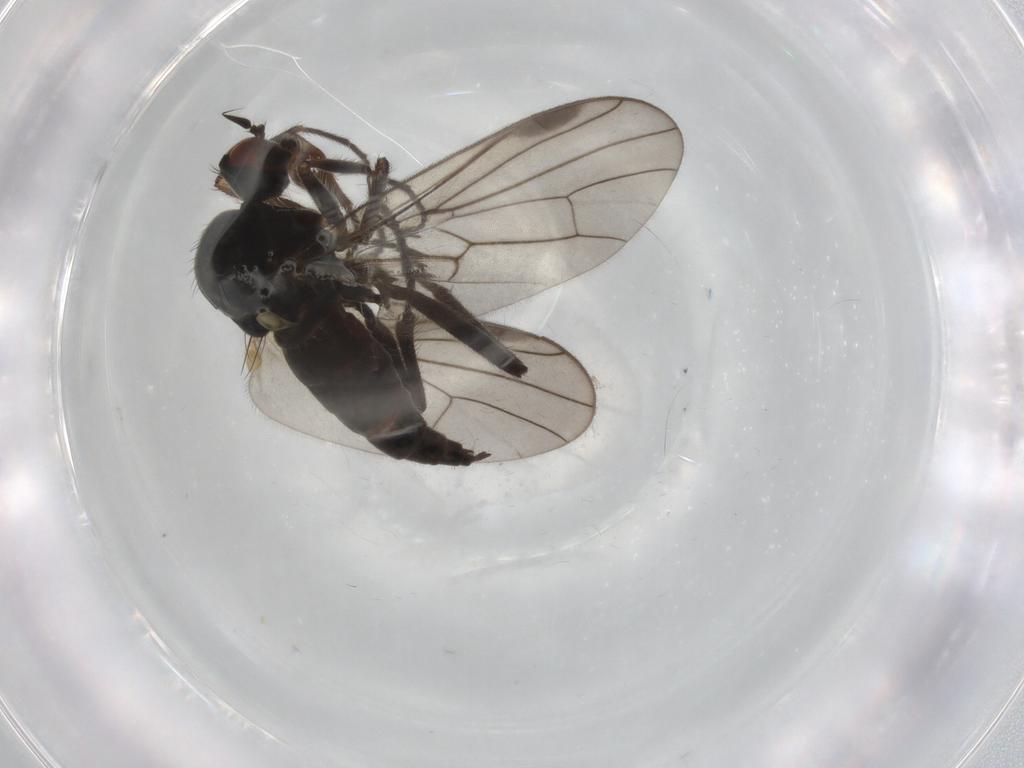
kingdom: Animalia
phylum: Arthropoda
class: Insecta
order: Diptera
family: Hybotidae
